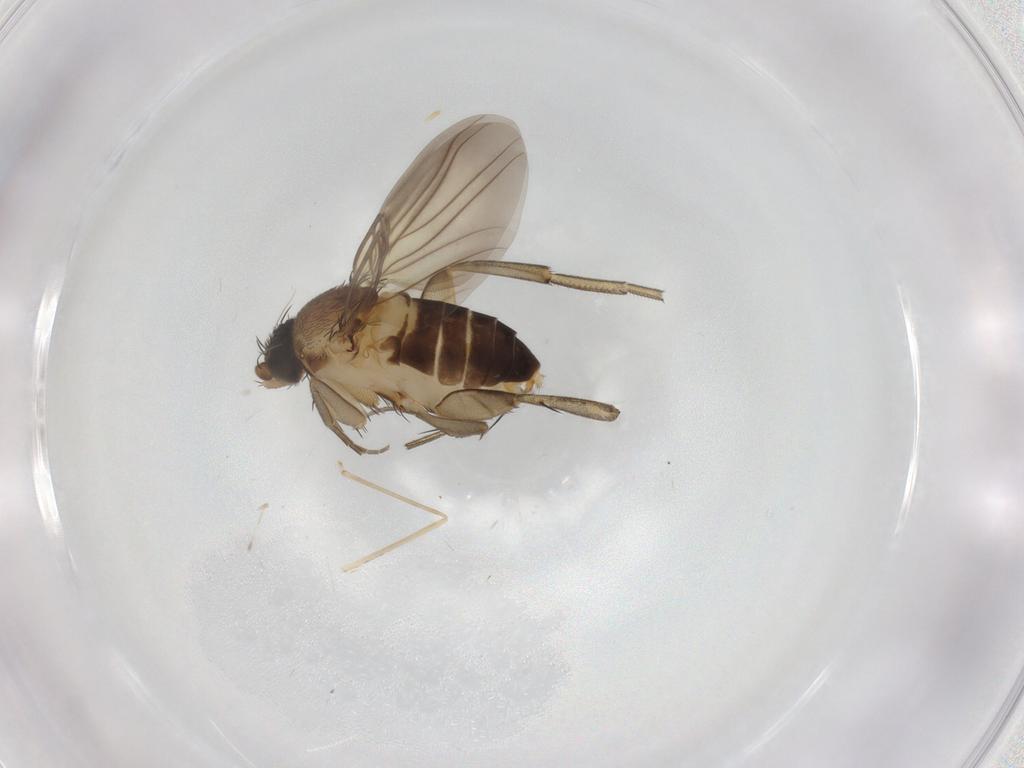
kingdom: Animalia
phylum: Arthropoda
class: Insecta
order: Diptera
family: Phoridae
